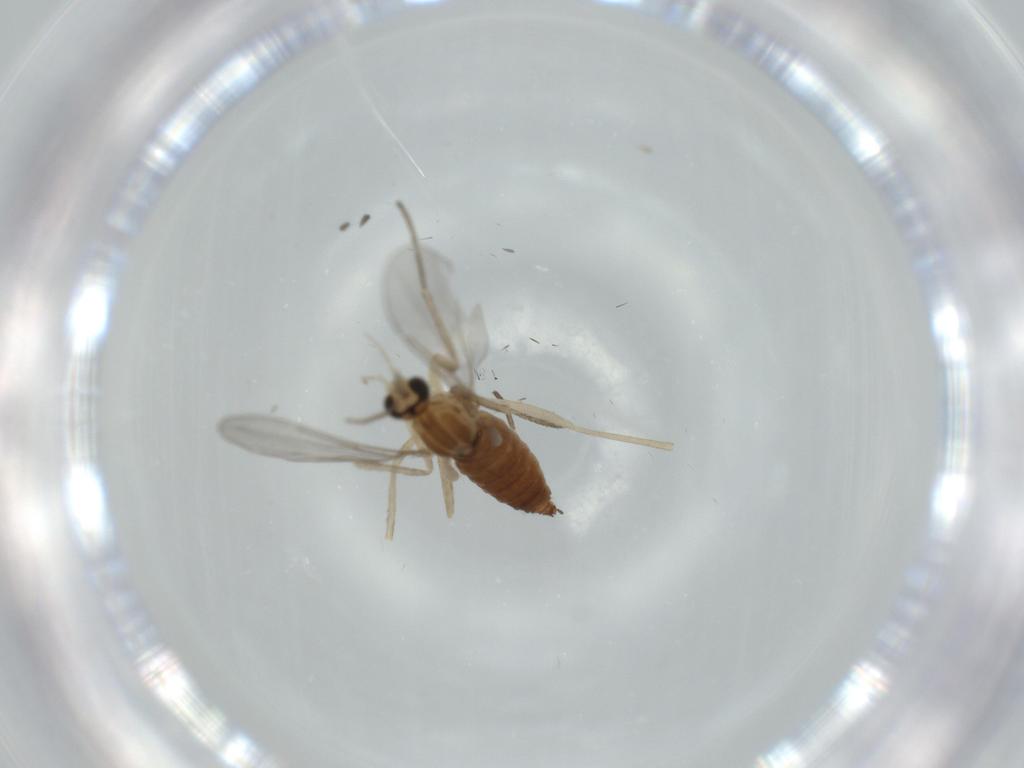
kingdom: Animalia
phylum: Arthropoda
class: Insecta
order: Diptera
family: Cecidomyiidae
